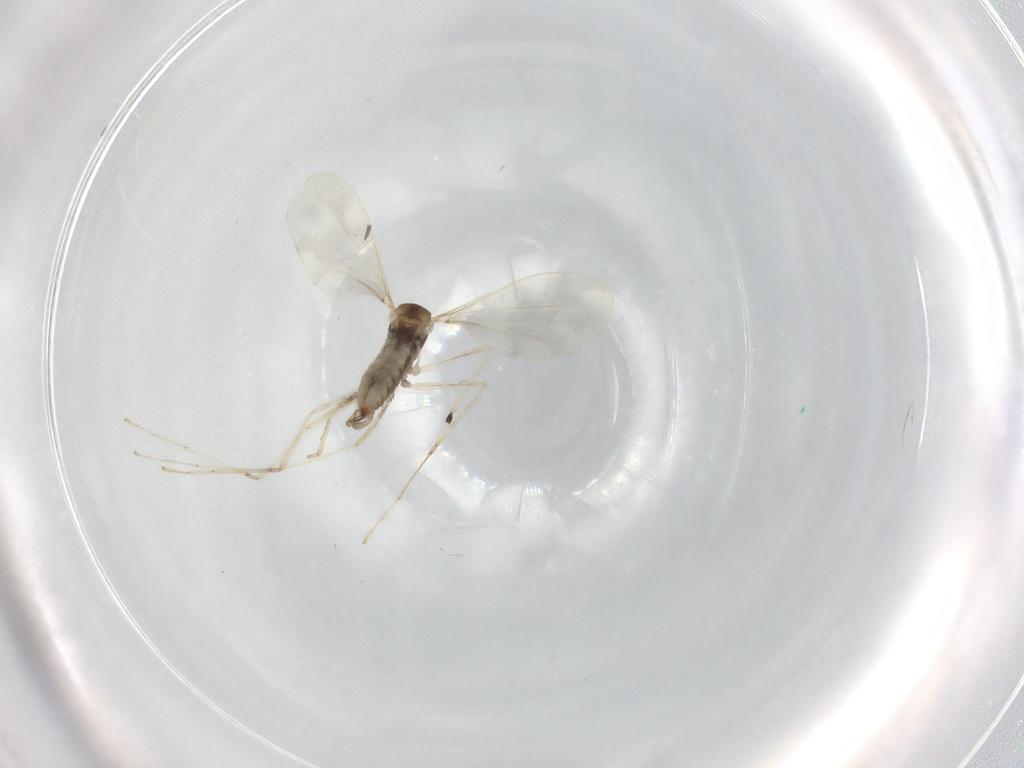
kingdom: Animalia
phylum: Arthropoda
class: Insecta
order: Diptera
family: Cecidomyiidae
